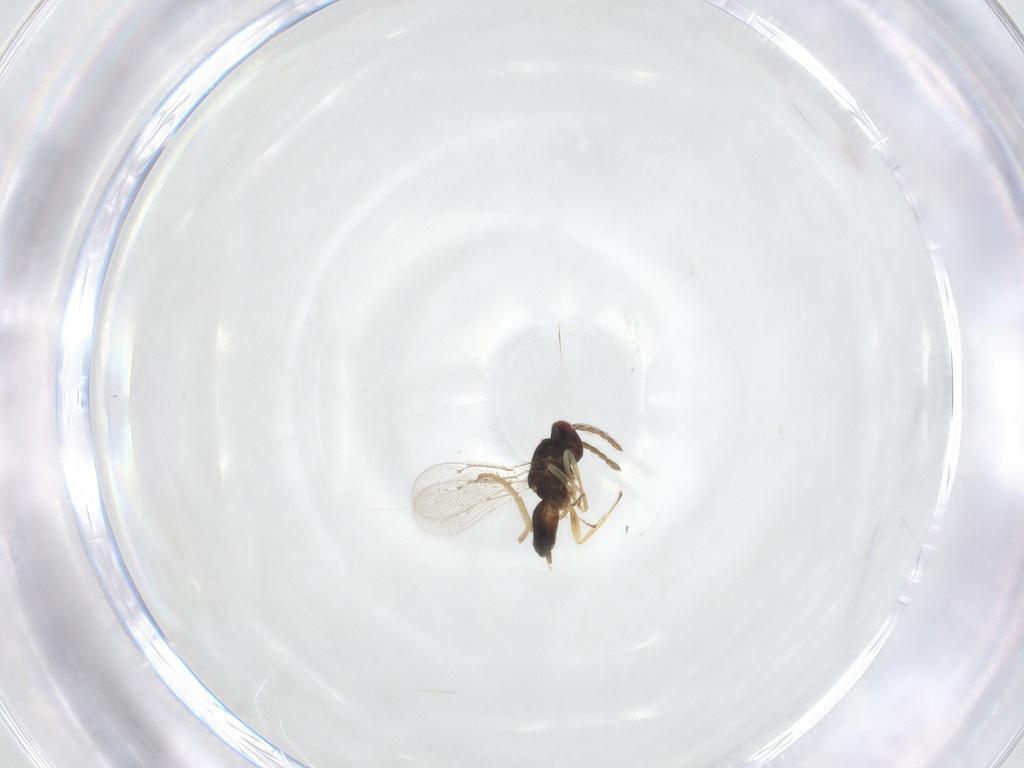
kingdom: Animalia
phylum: Arthropoda
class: Insecta
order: Hymenoptera
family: Eulophidae
